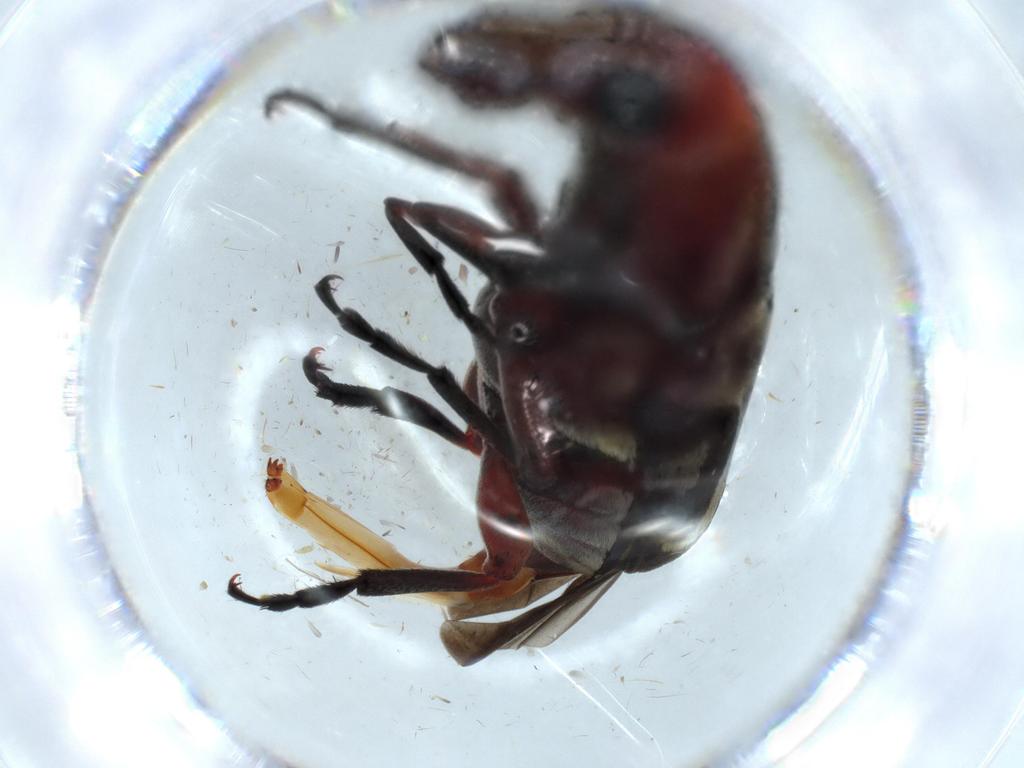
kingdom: Animalia
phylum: Arthropoda
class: Insecta
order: Coleoptera
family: Anthribidae
